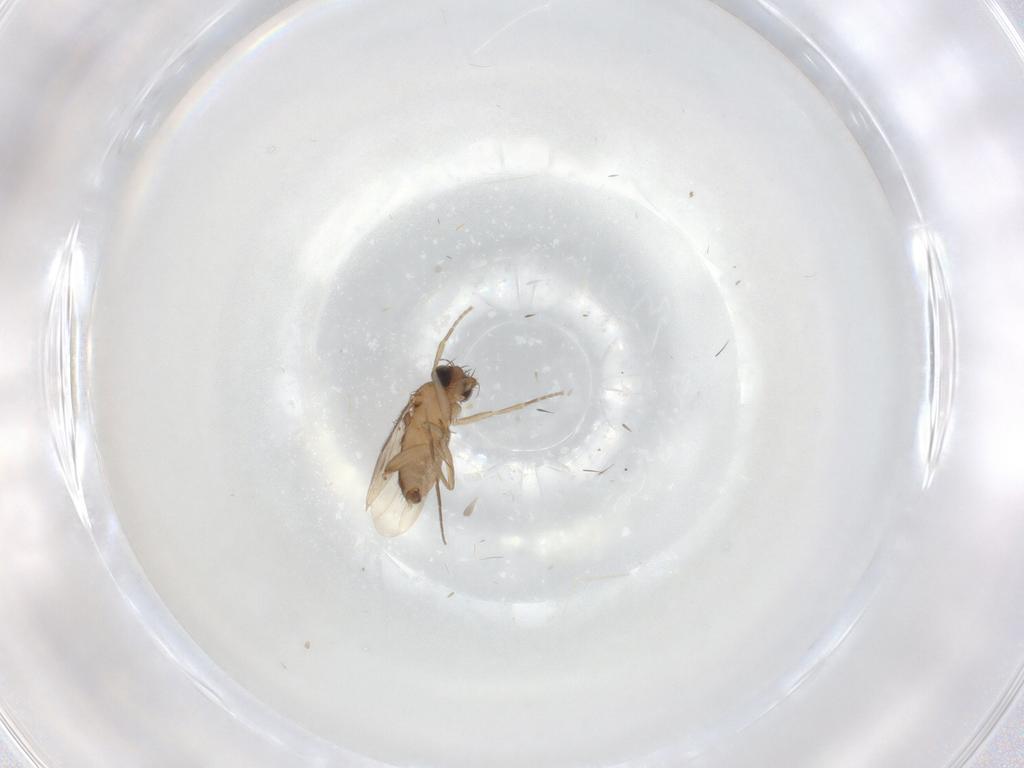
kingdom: Animalia
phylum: Arthropoda
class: Insecta
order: Diptera
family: Phoridae
